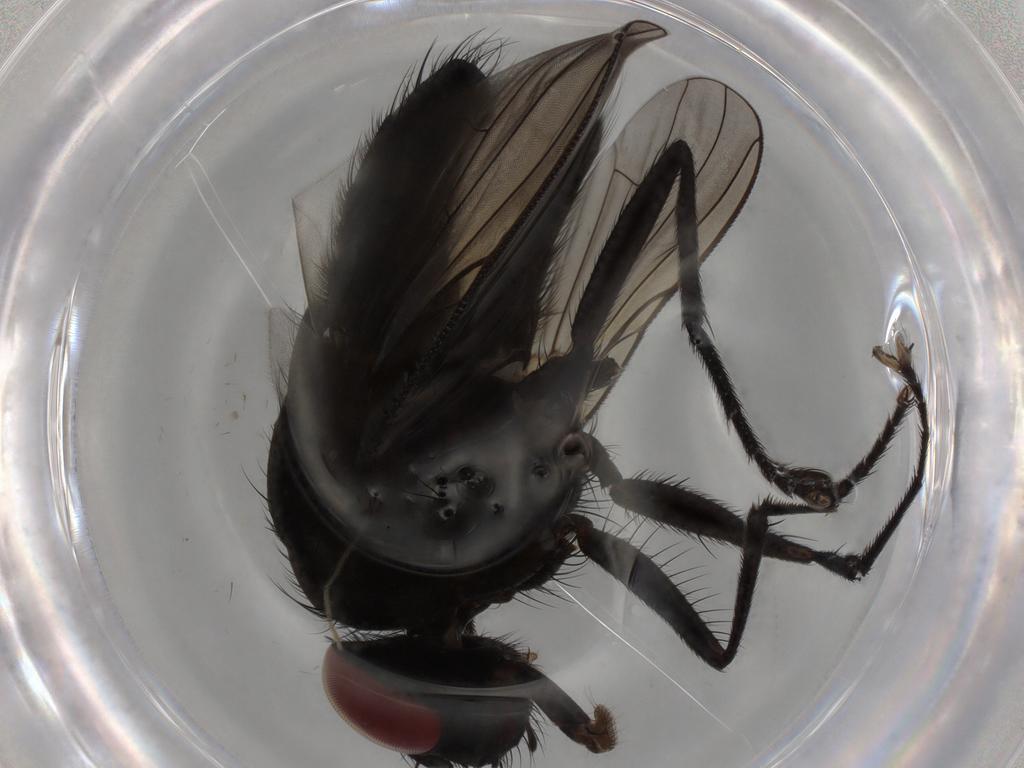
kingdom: Animalia
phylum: Arthropoda
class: Insecta
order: Diptera
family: Muscidae
